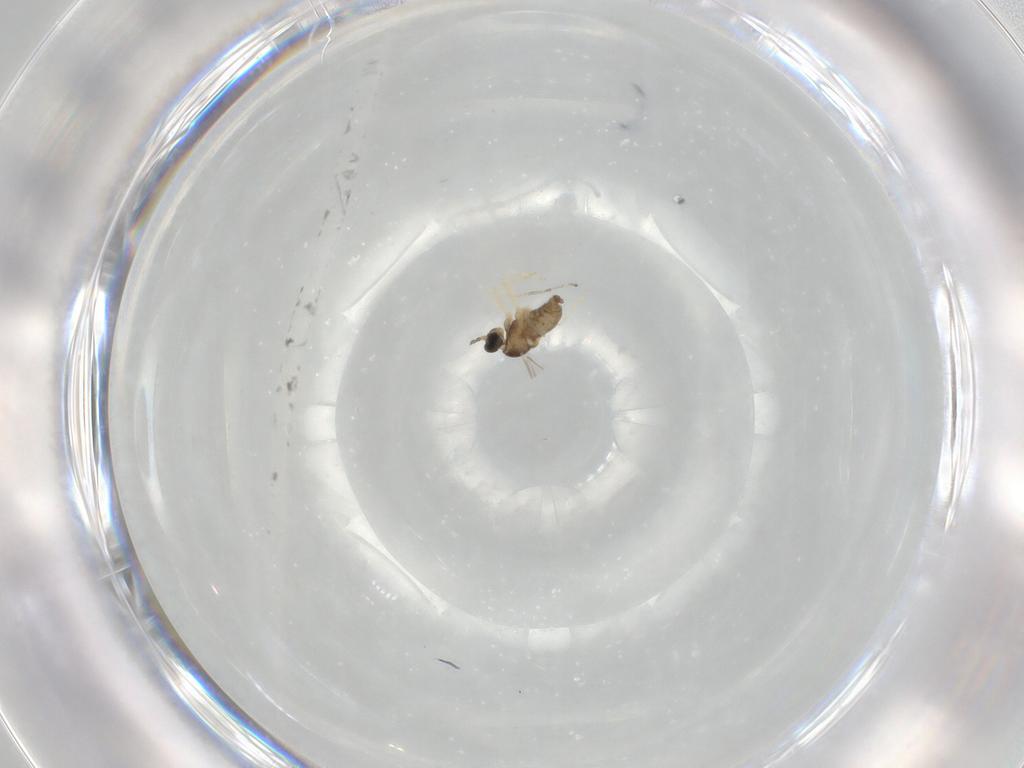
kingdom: Animalia
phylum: Arthropoda
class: Insecta
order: Diptera
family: Cecidomyiidae
